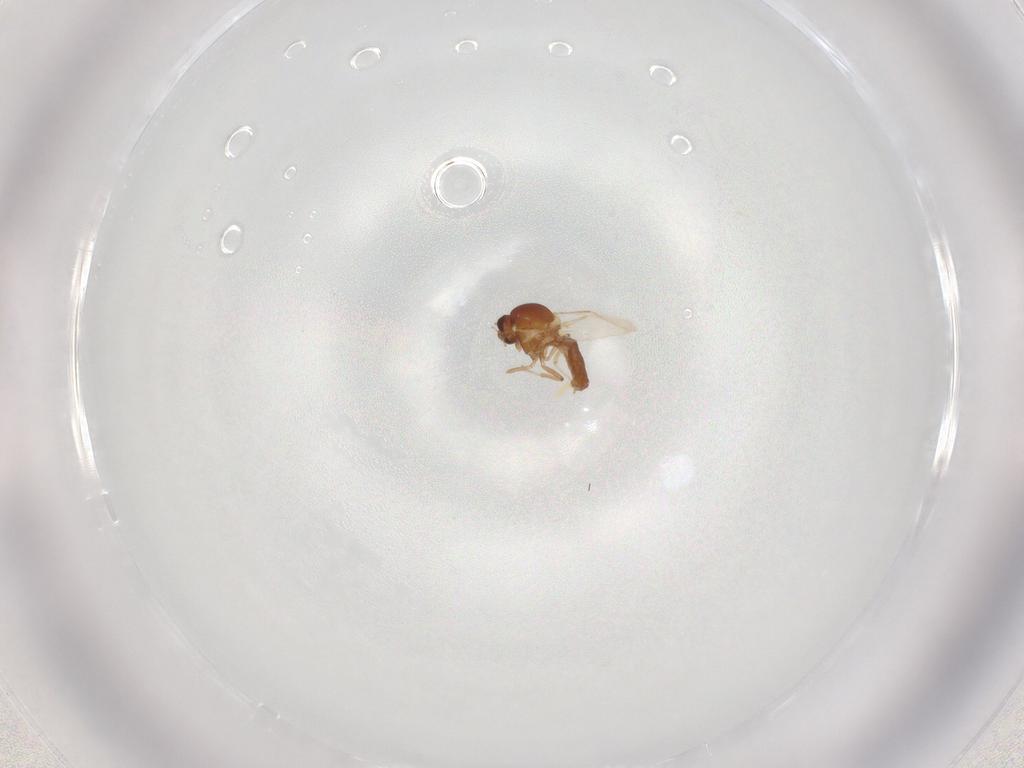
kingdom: Animalia
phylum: Arthropoda
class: Insecta
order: Diptera
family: Cecidomyiidae
